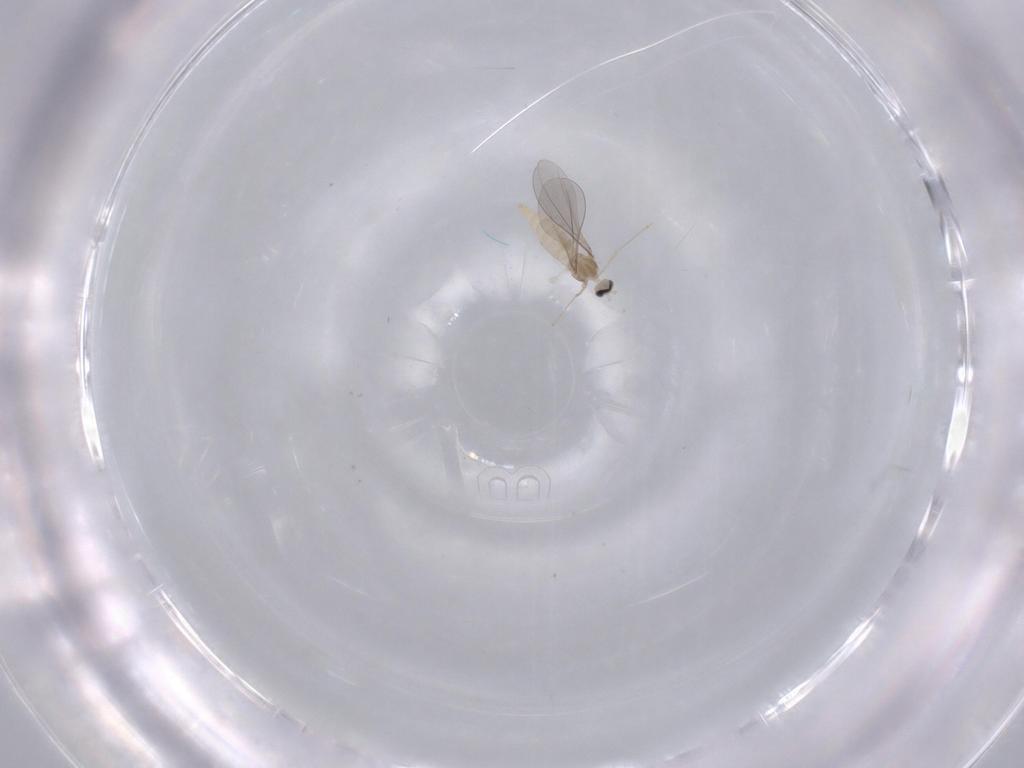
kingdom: Animalia
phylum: Arthropoda
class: Insecta
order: Diptera
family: Cecidomyiidae
